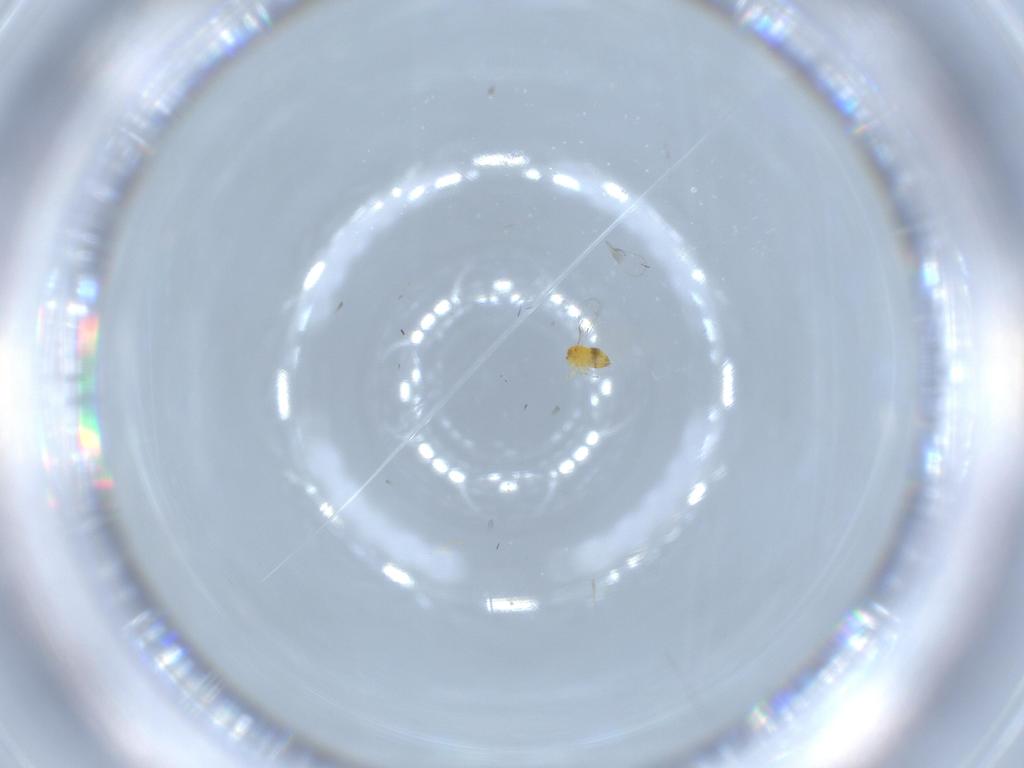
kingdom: Animalia
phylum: Arthropoda
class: Insecta
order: Hymenoptera
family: Trichogrammatidae
